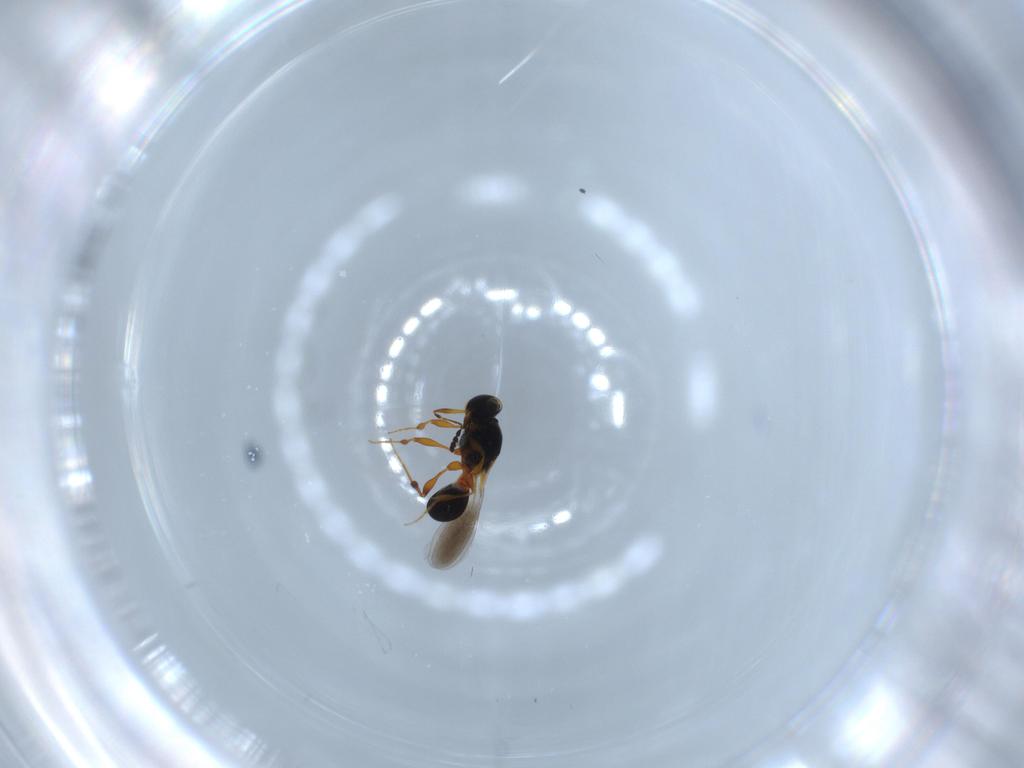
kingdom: Animalia
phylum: Arthropoda
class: Insecta
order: Hymenoptera
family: Platygastridae
